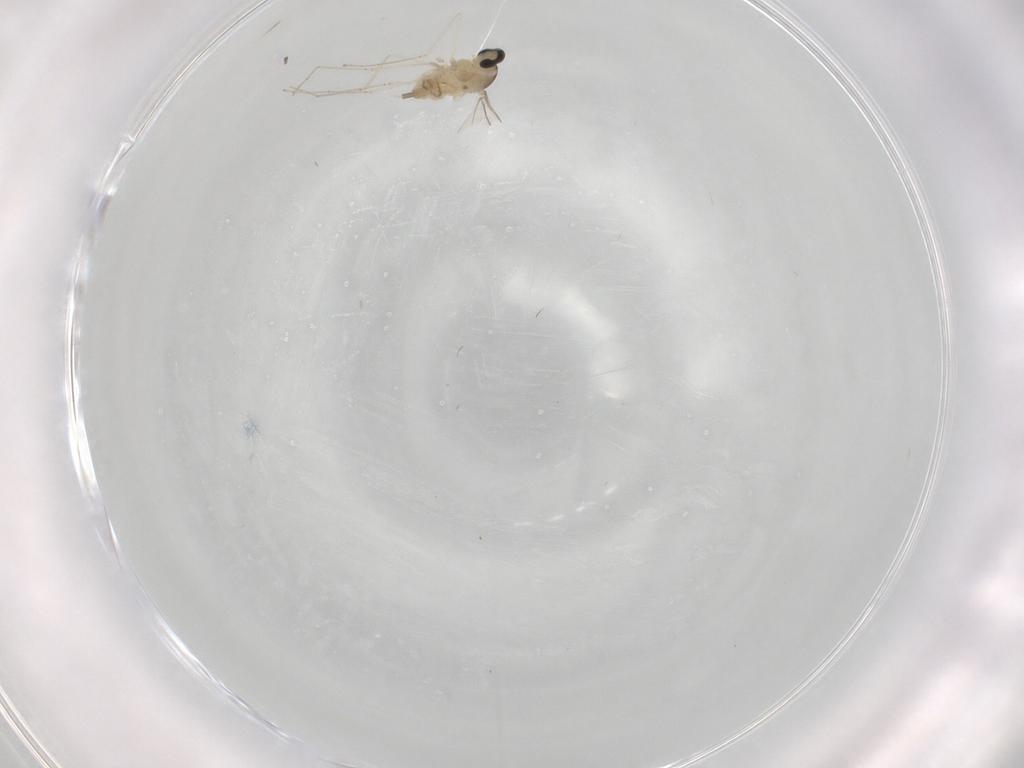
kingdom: Animalia
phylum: Arthropoda
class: Insecta
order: Diptera
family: Cecidomyiidae
